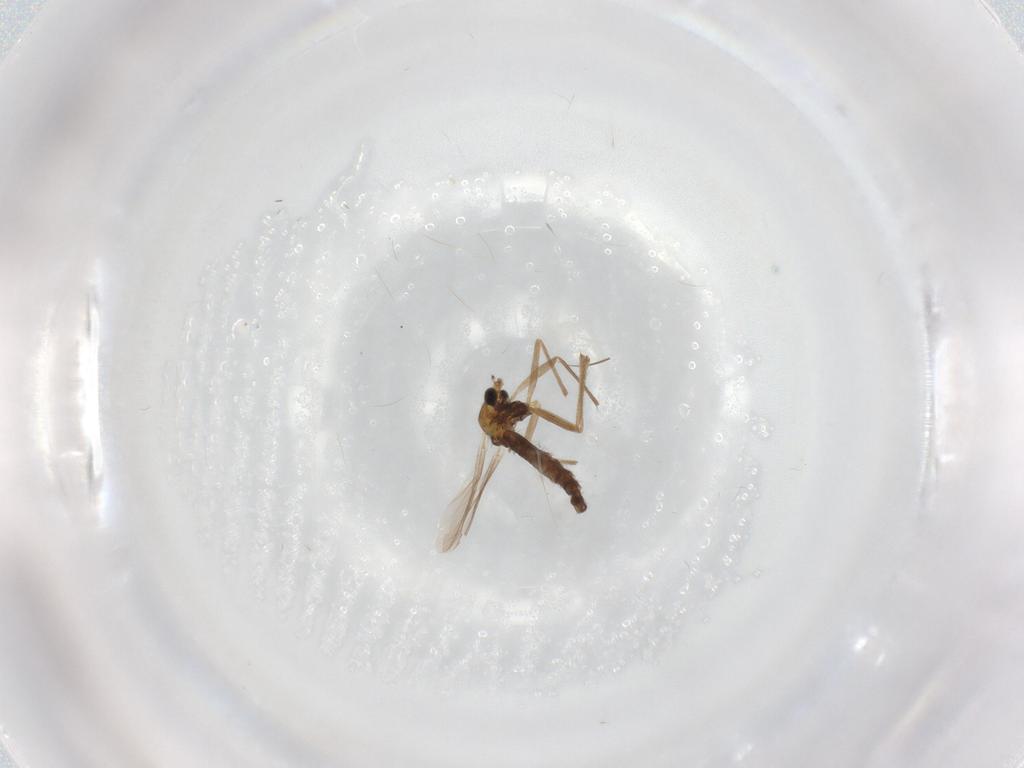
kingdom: Animalia
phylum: Arthropoda
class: Insecta
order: Diptera
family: Chironomidae
